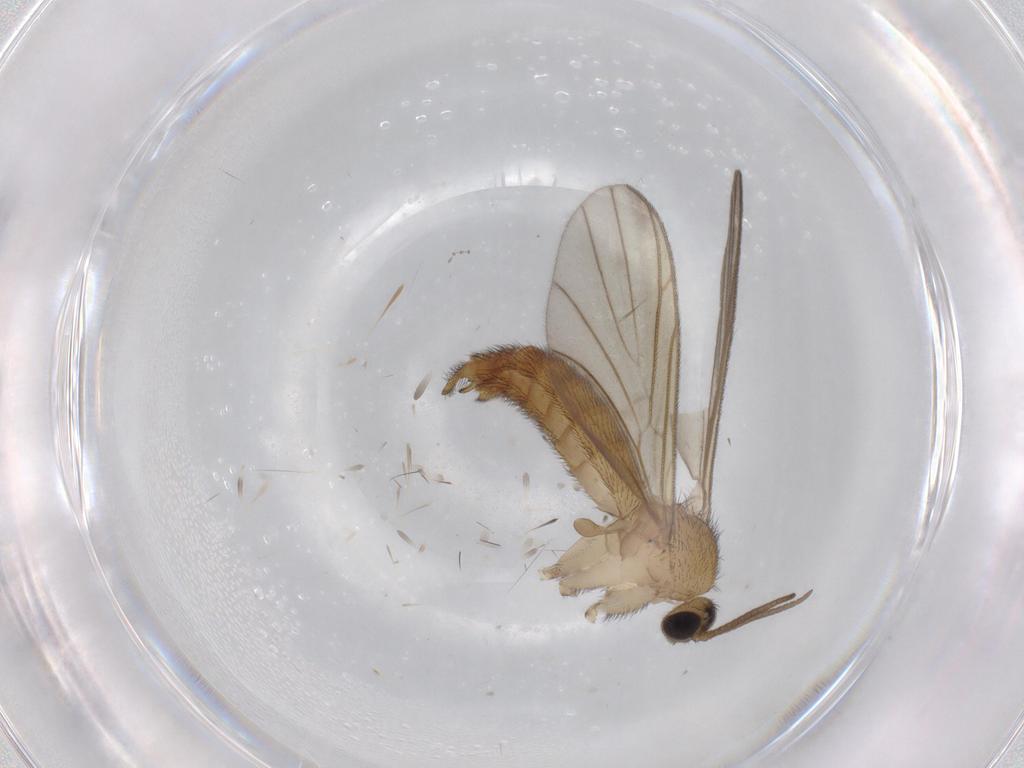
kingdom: Animalia
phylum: Arthropoda
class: Insecta
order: Diptera
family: Keroplatidae
